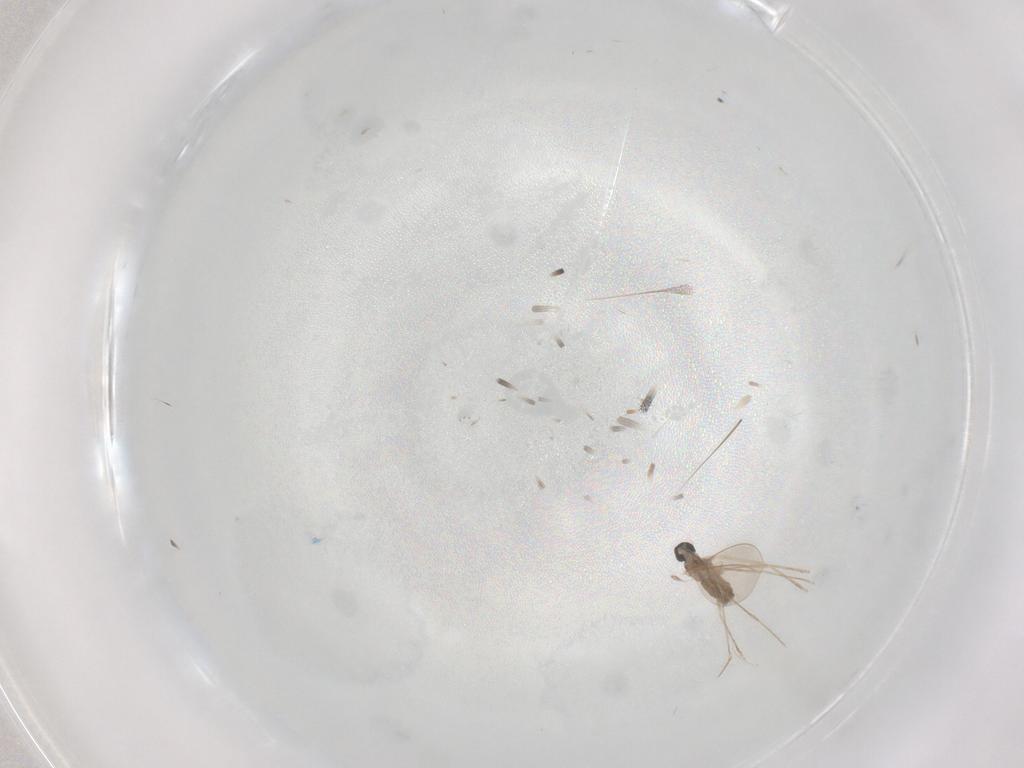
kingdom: Animalia
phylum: Arthropoda
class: Insecta
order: Diptera
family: Cecidomyiidae
